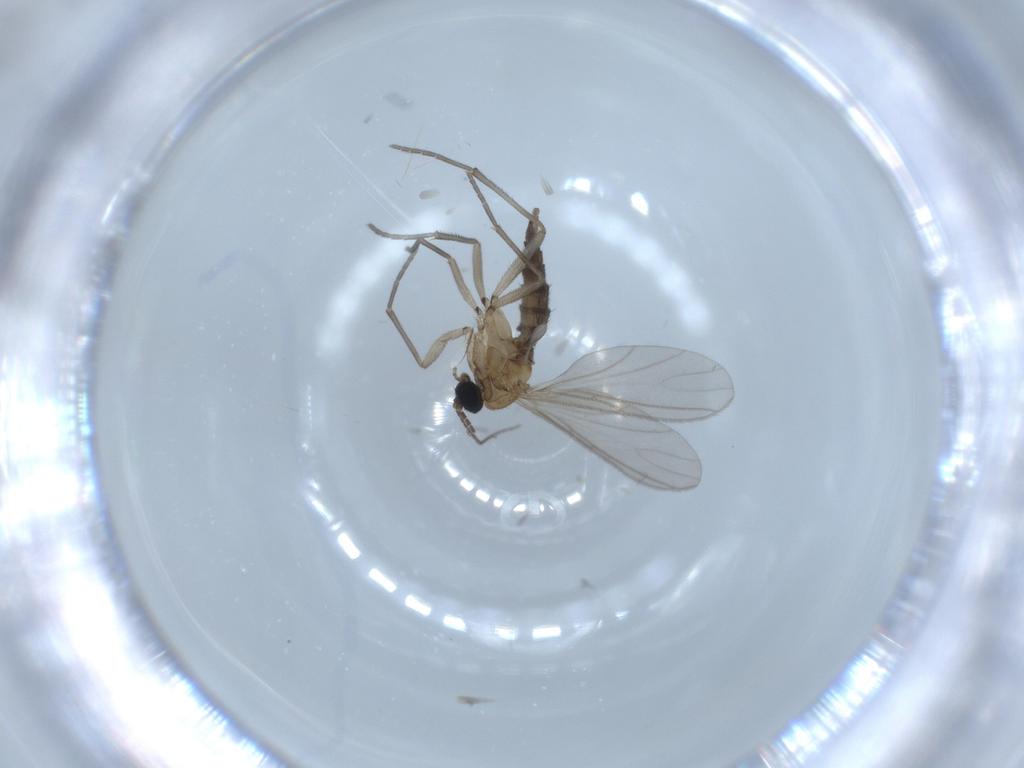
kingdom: Animalia
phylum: Arthropoda
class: Insecta
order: Diptera
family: Sciaridae
